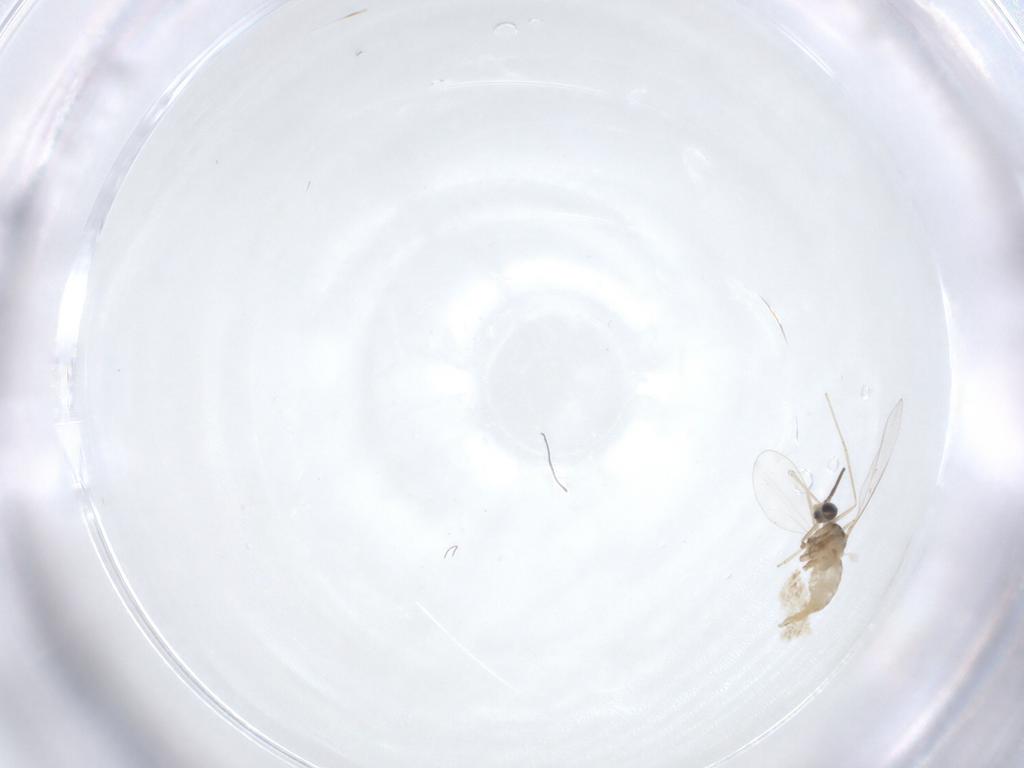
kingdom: Animalia
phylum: Arthropoda
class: Insecta
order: Diptera
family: Cecidomyiidae
